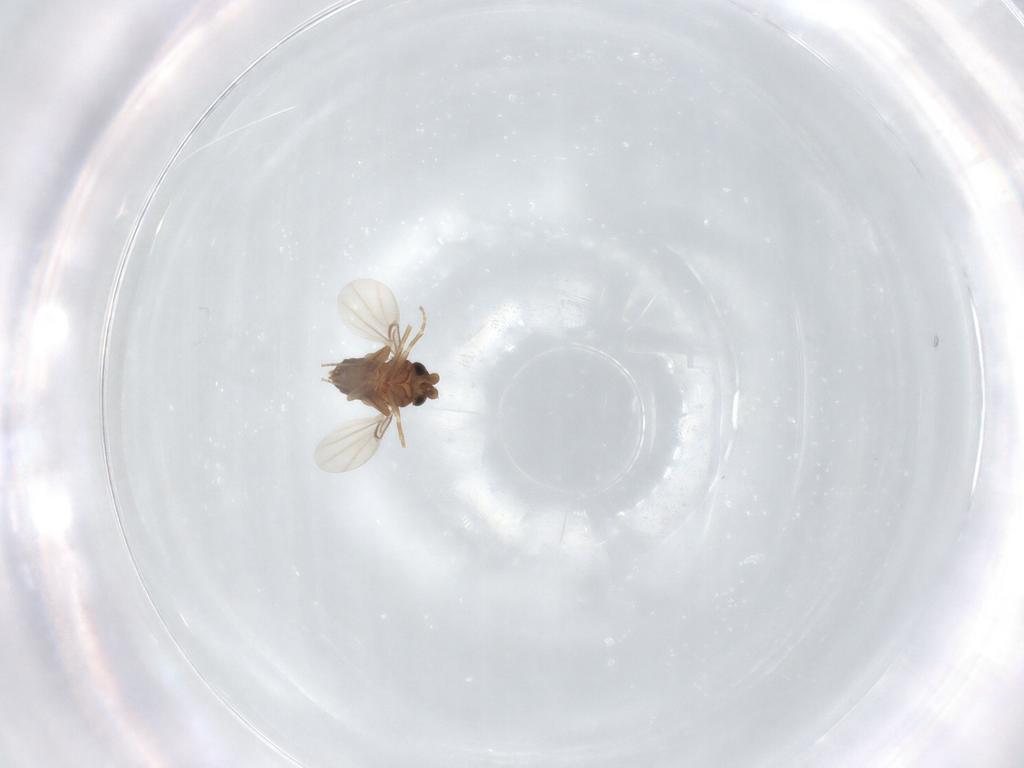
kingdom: Animalia
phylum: Arthropoda
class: Insecta
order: Diptera
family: Phoridae
